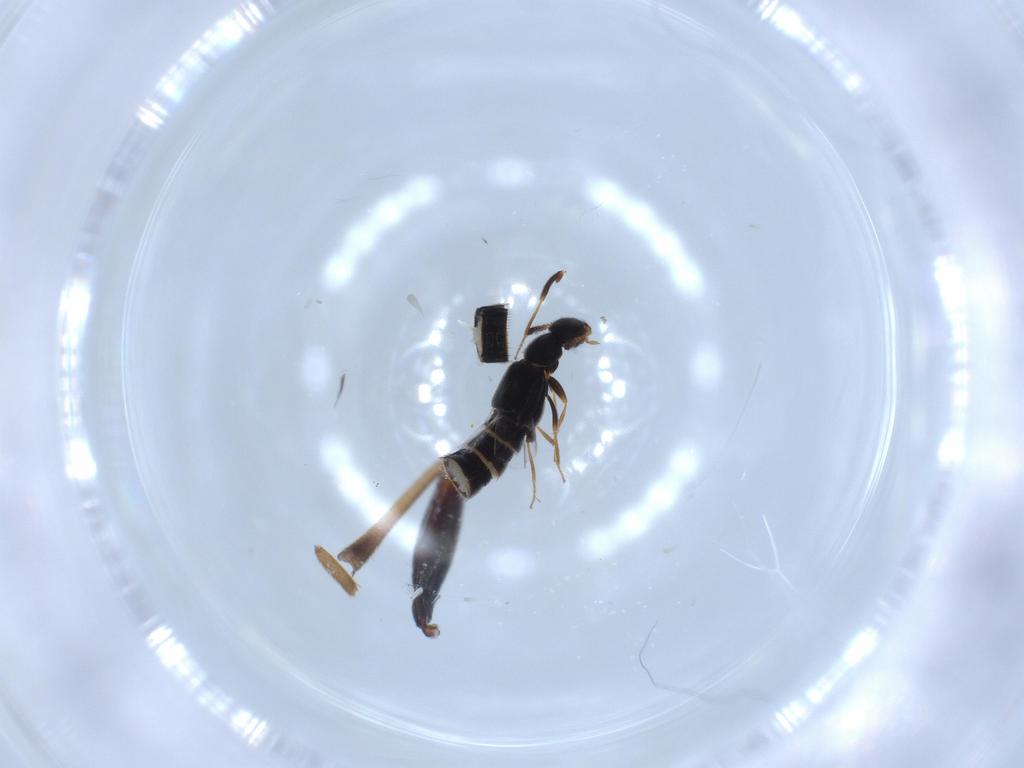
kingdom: Animalia
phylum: Arthropoda
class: Insecta
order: Coleoptera
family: Curculionidae
